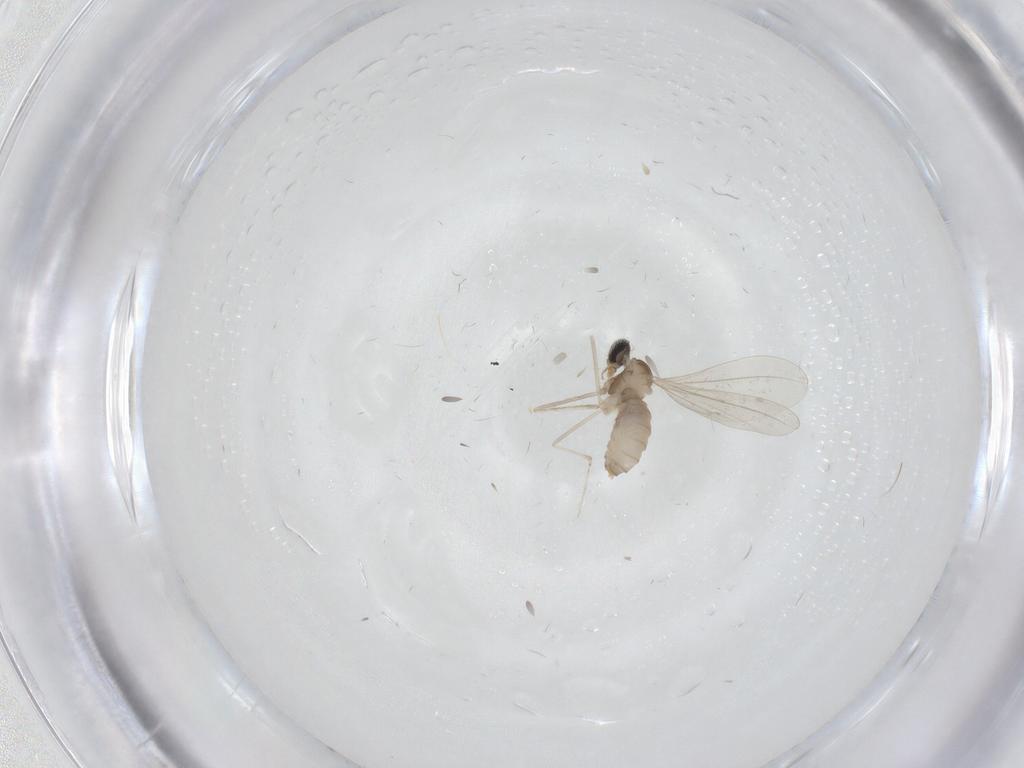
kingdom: Animalia
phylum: Arthropoda
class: Insecta
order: Diptera
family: Cecidomyiidae
